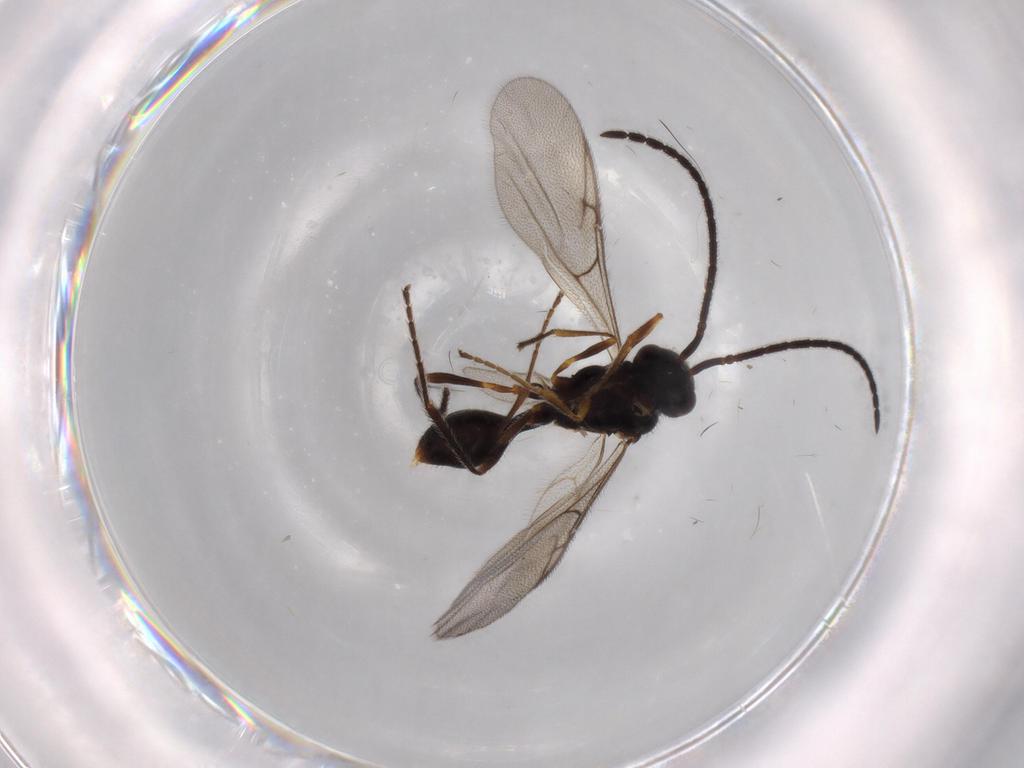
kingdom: Animalia
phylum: Arthropoda
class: Insecta
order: Hymenoptera
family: Diapriidae
